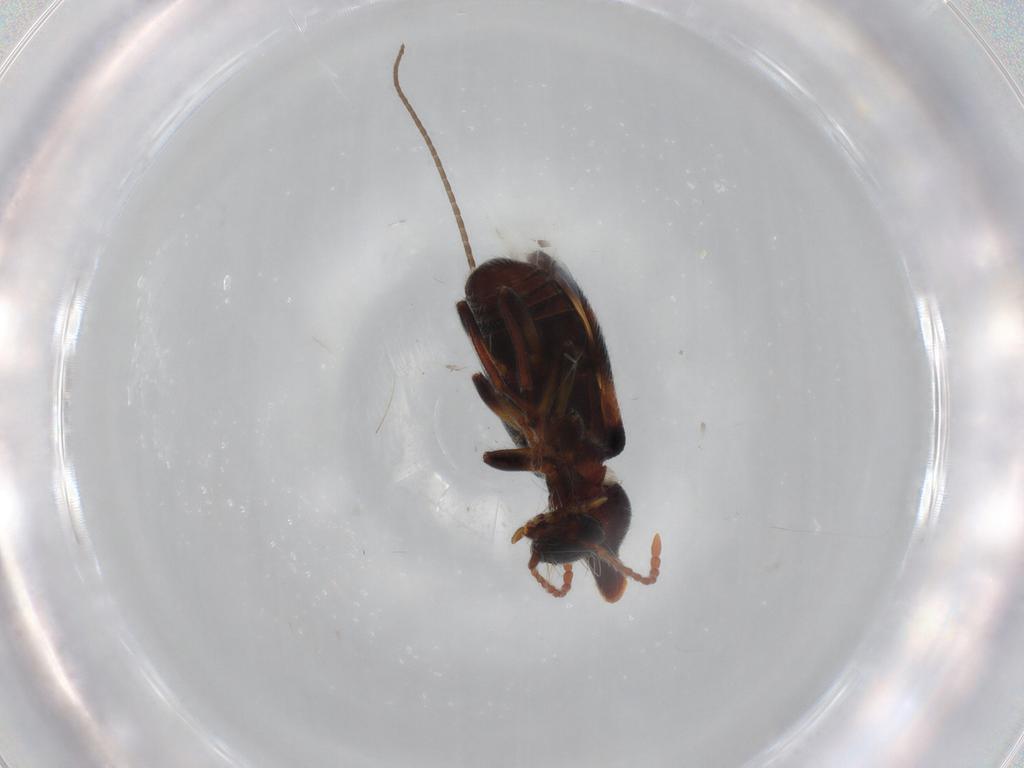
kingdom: Animalia
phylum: Arthropoda
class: Insecta
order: Coleoptera
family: Anthicidae
